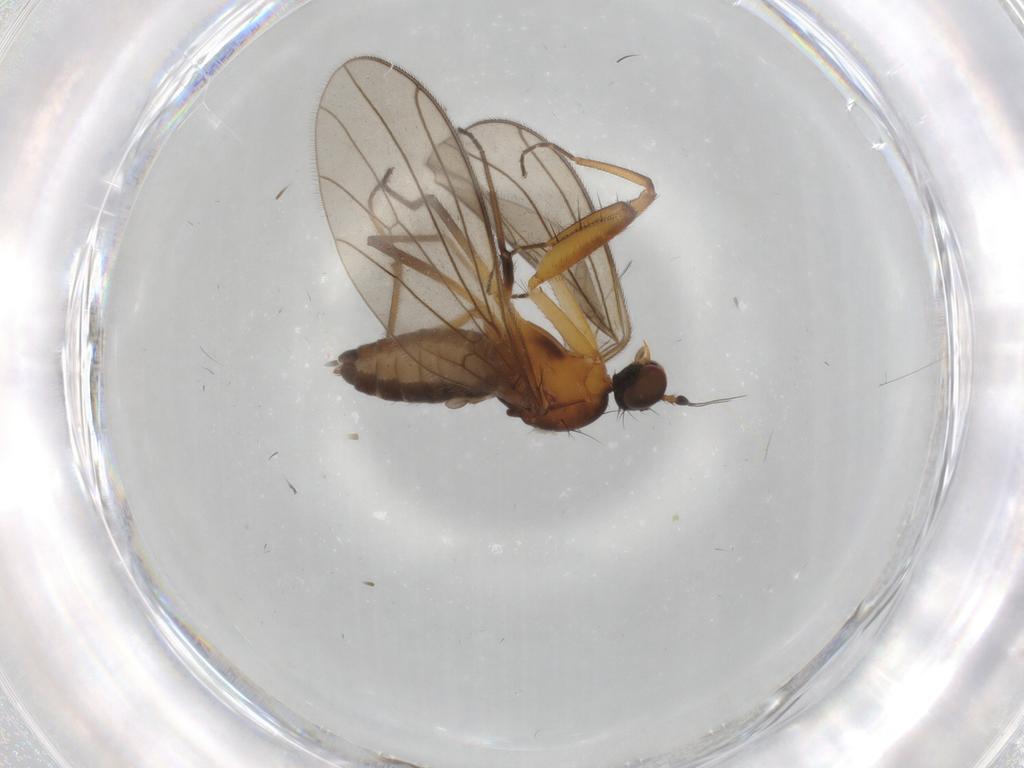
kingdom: Animalia
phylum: Arthropoda
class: Insecta
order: Diptera
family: Empididae
